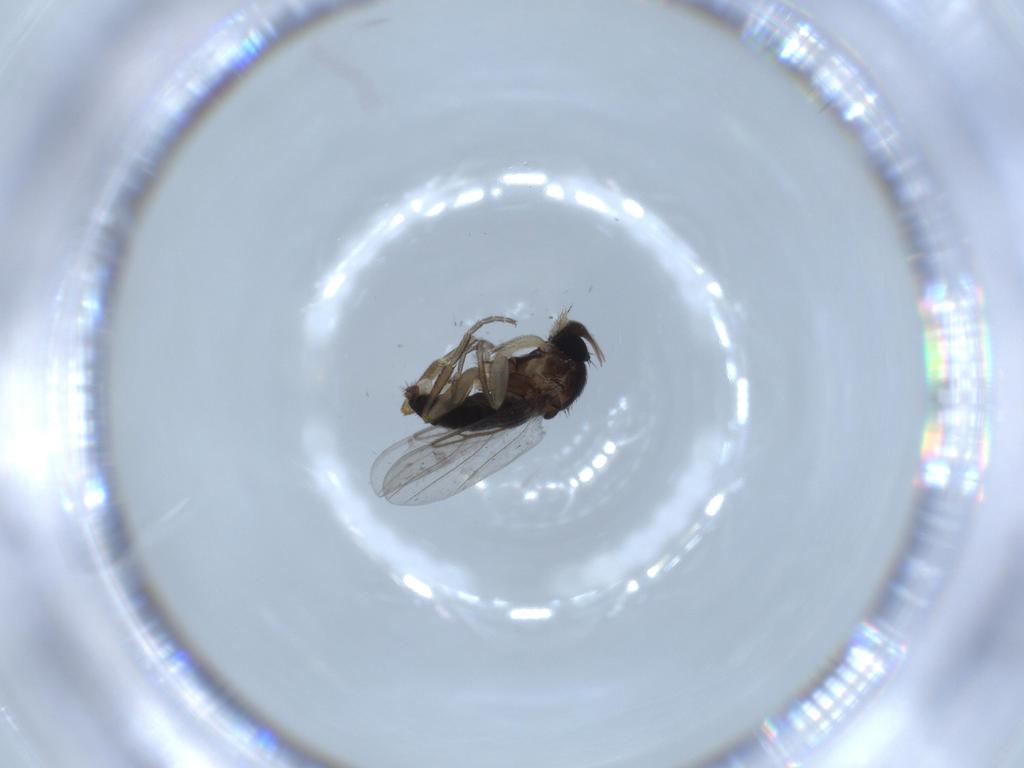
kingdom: Animalia
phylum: Arthropoda
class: Insecta
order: Diptera
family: Phoridae
